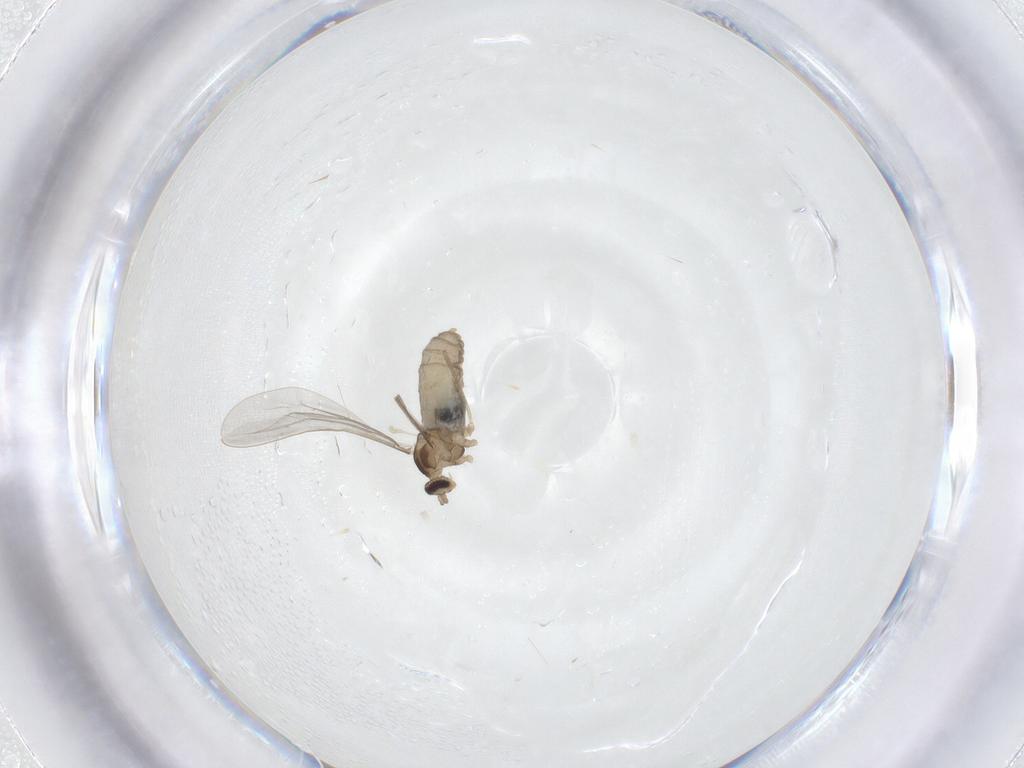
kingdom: Animalia
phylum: Arthropoda
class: Insecta
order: Diptera
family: Cecidomyiidae
